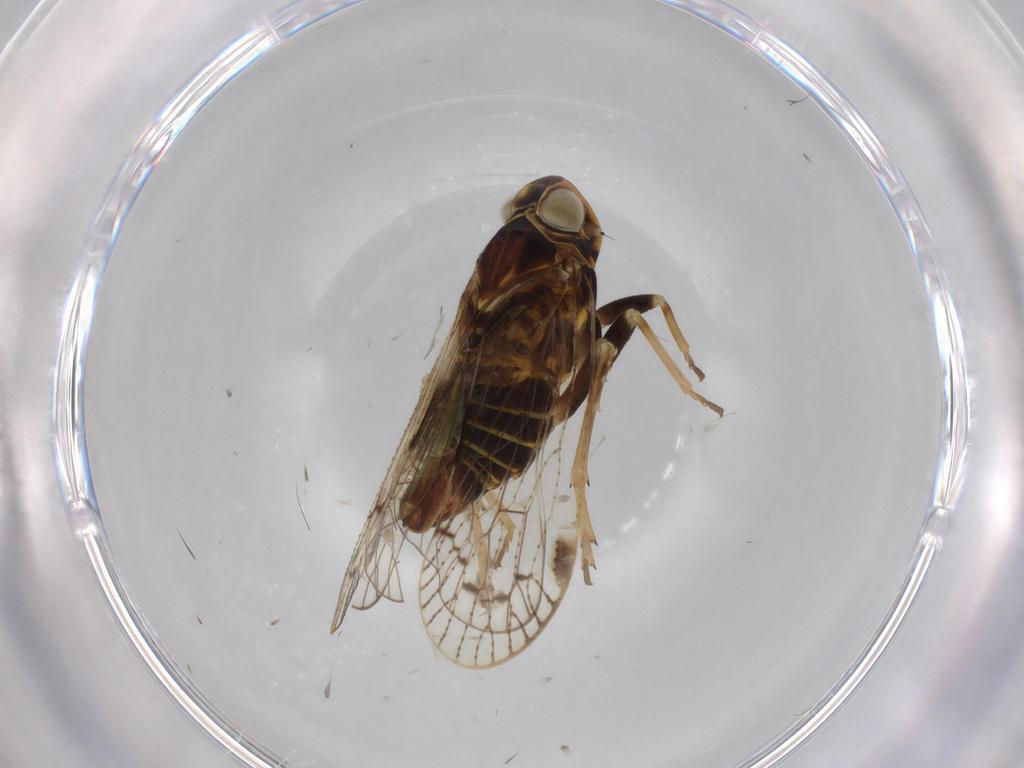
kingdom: Animalia
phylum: Arthropoda
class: Insecta
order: Hemiptera
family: Cixiidae
